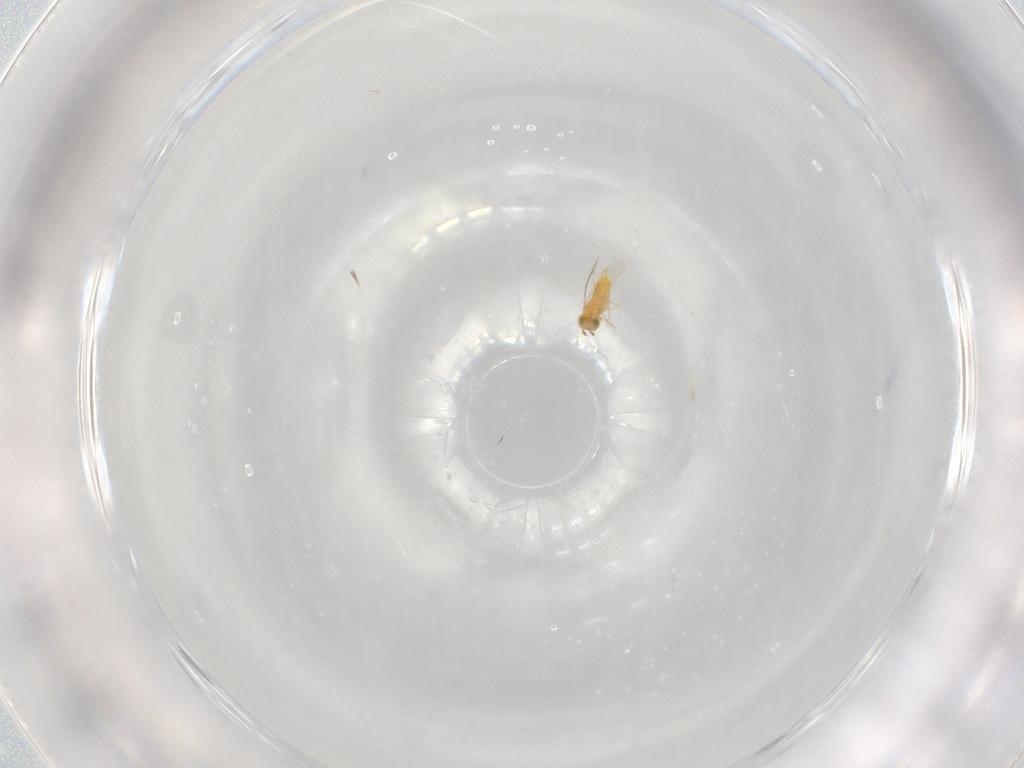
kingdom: Animalia
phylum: Arthropoda
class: Insecta
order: Hymenoptera
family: Aphelinidae
